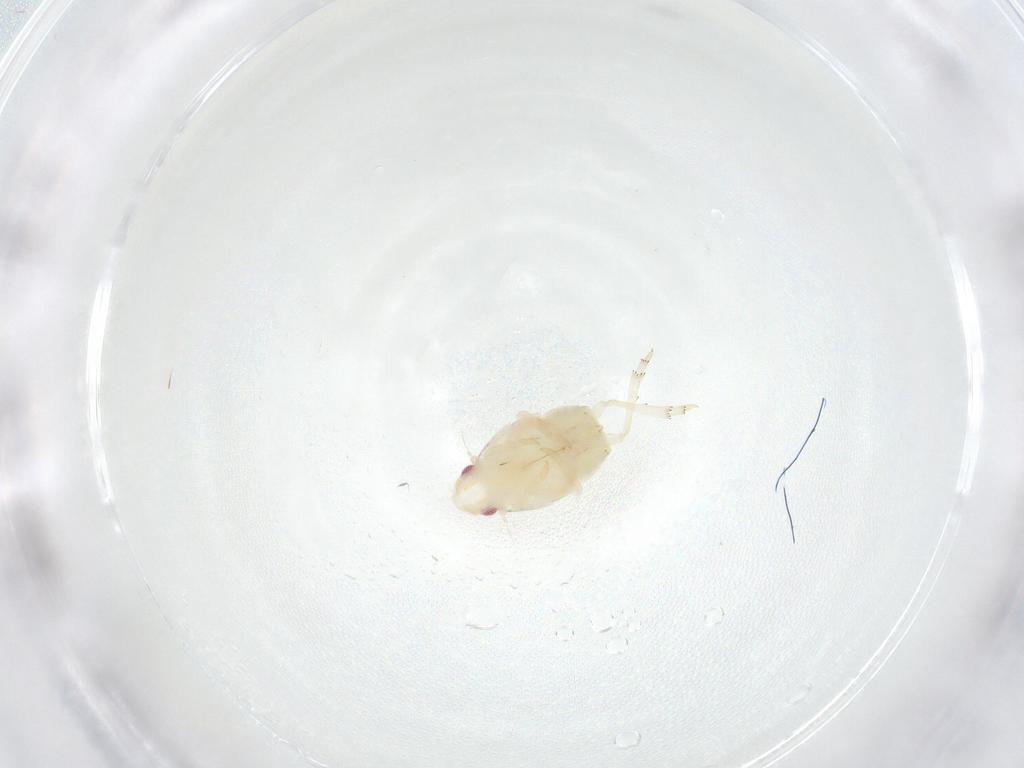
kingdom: Animalia
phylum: Arthropoda
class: Insecta
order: Hemiptera
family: Flatidae
